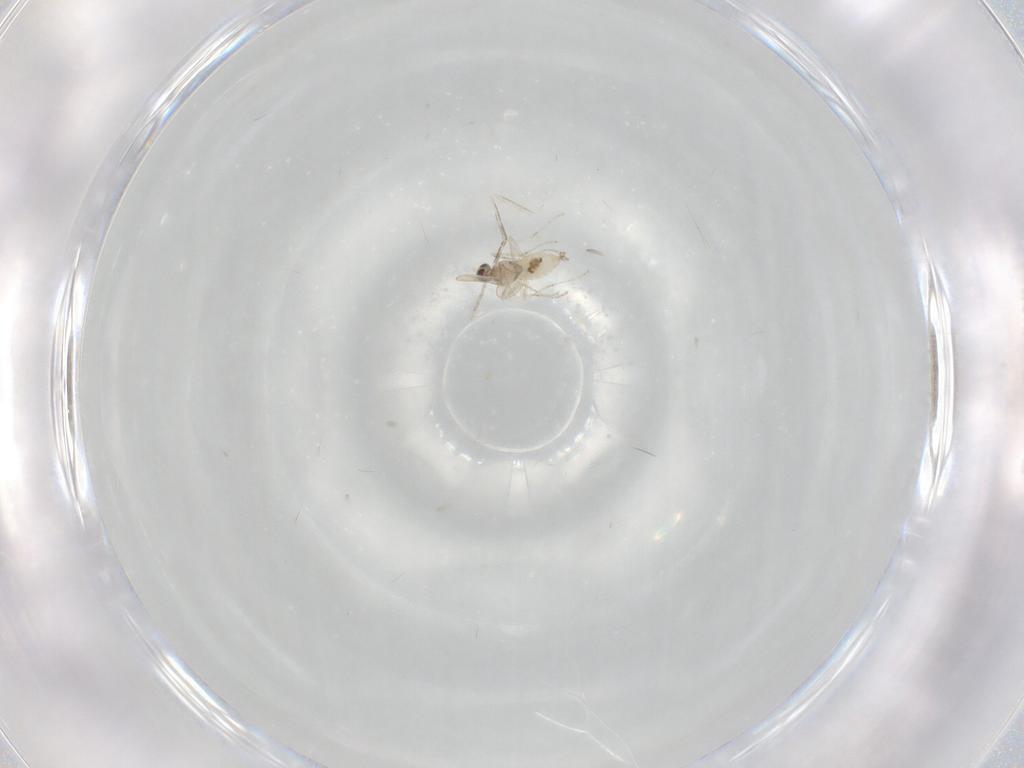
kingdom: Animalia
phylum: Arthropoda
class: Insecta
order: Diptera
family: Cecidomyiidae
